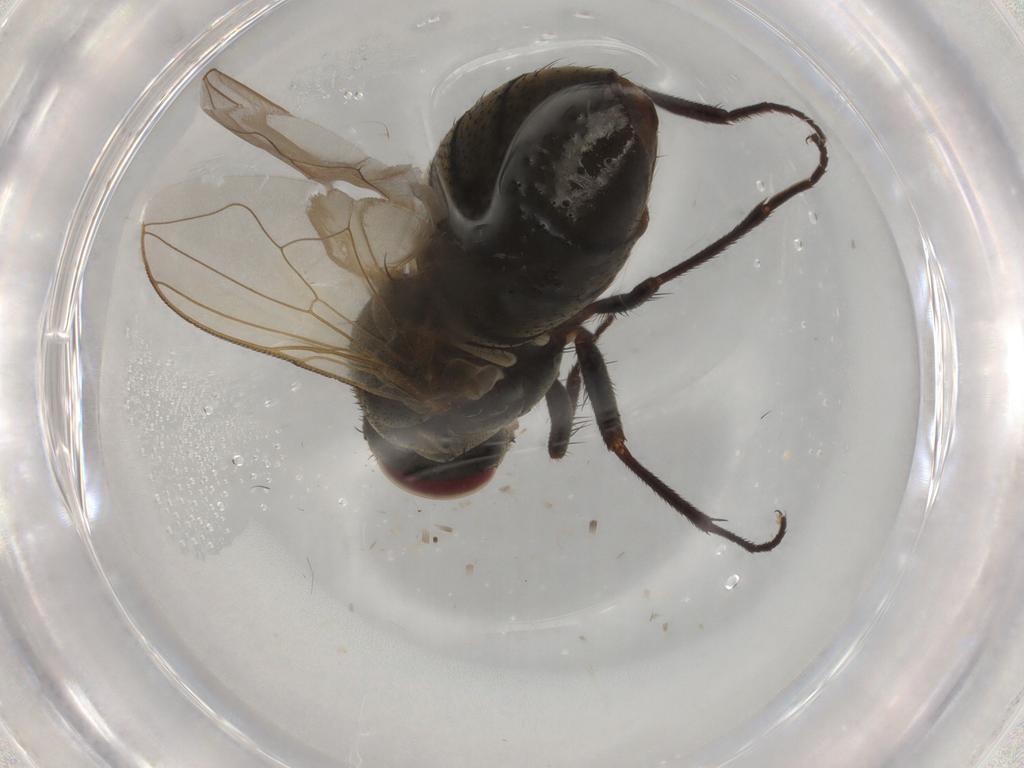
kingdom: Animalia
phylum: Arthropoda
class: Insecta
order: Diptera
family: Muscidae
